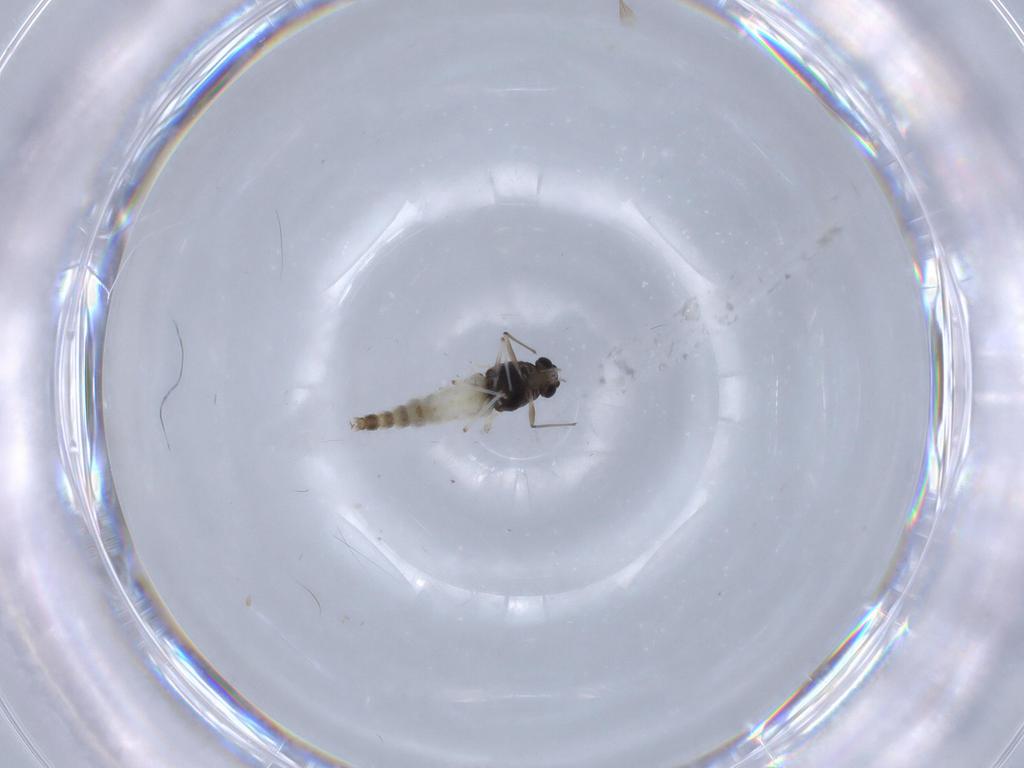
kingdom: Animalia
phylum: Arthropoda
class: Insecta
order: Diptera
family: Chironomidae
